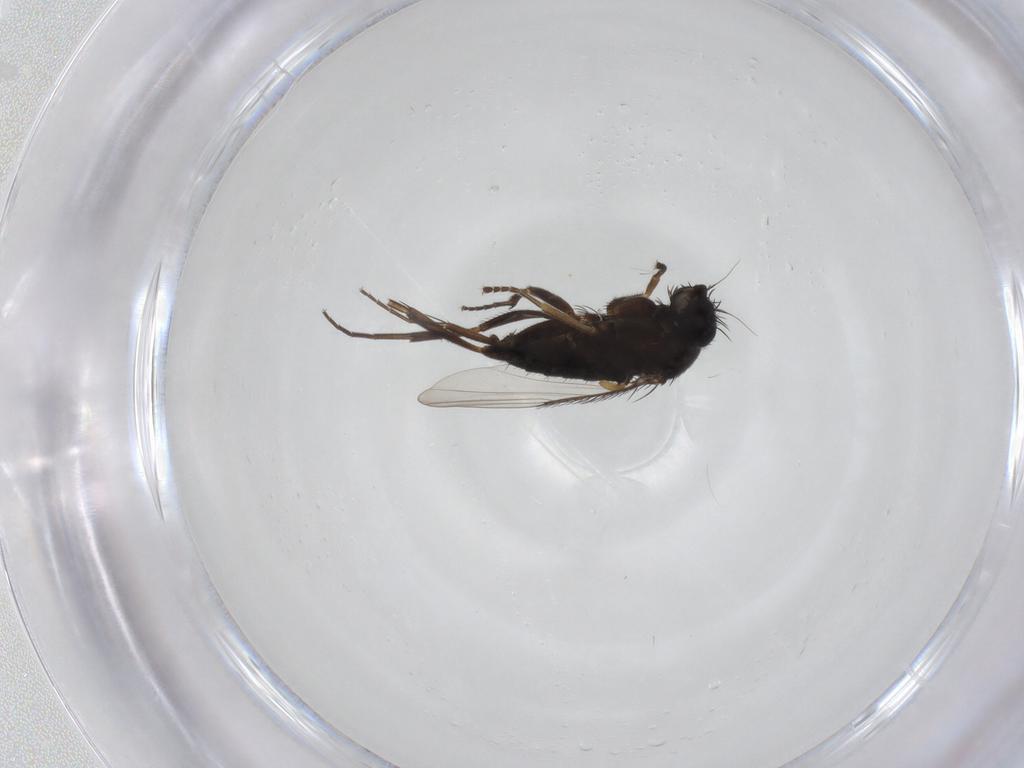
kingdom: Animalia
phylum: Arthropoda
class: Insecta
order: Diptera
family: Phoridae
